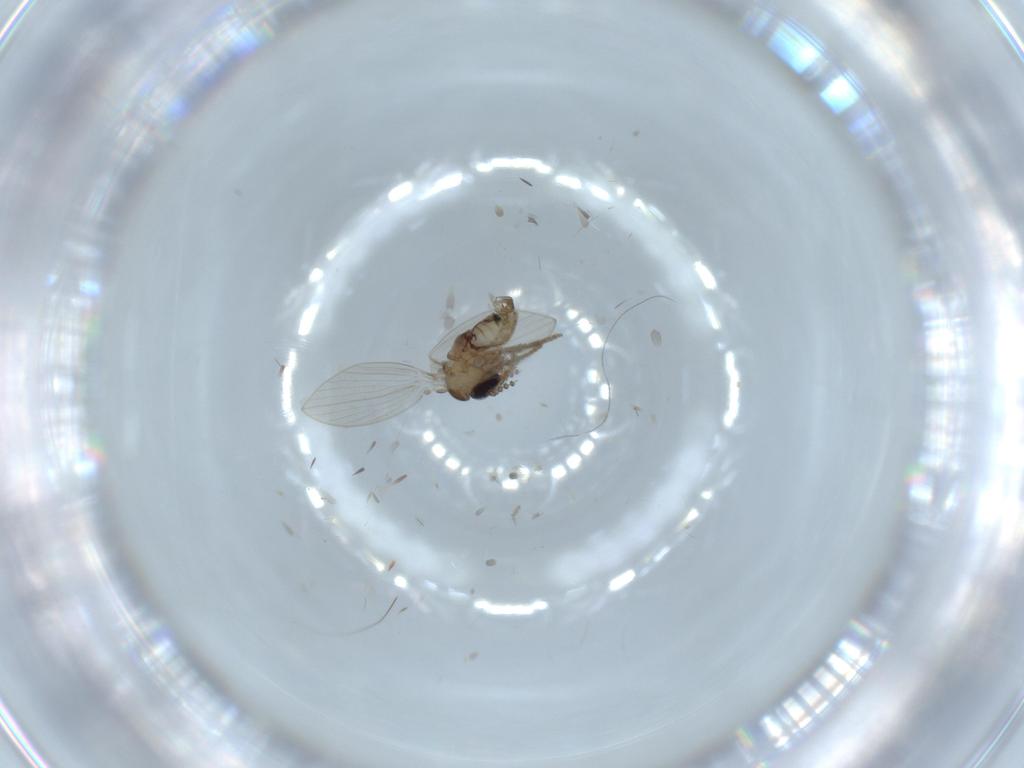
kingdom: Animalia
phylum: Arthropoda
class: Insecta
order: Diptera
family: Psychodidae
